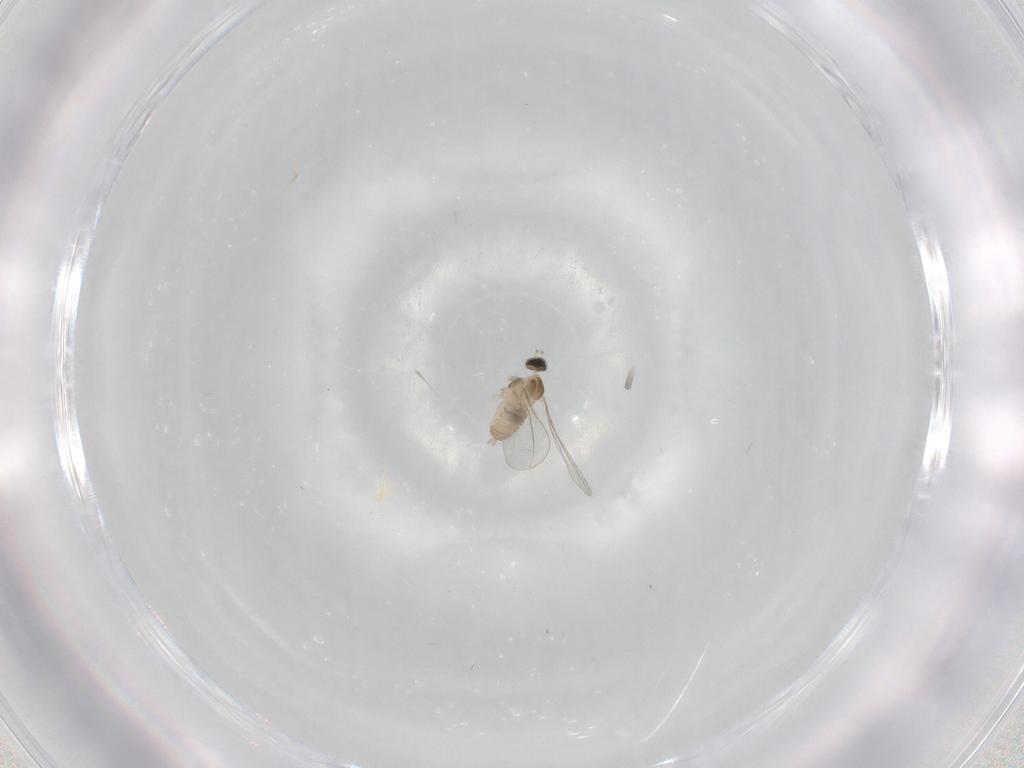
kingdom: Animalia
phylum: Arthropoda
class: Insecta
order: Diptera
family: Cecidomyiidae
